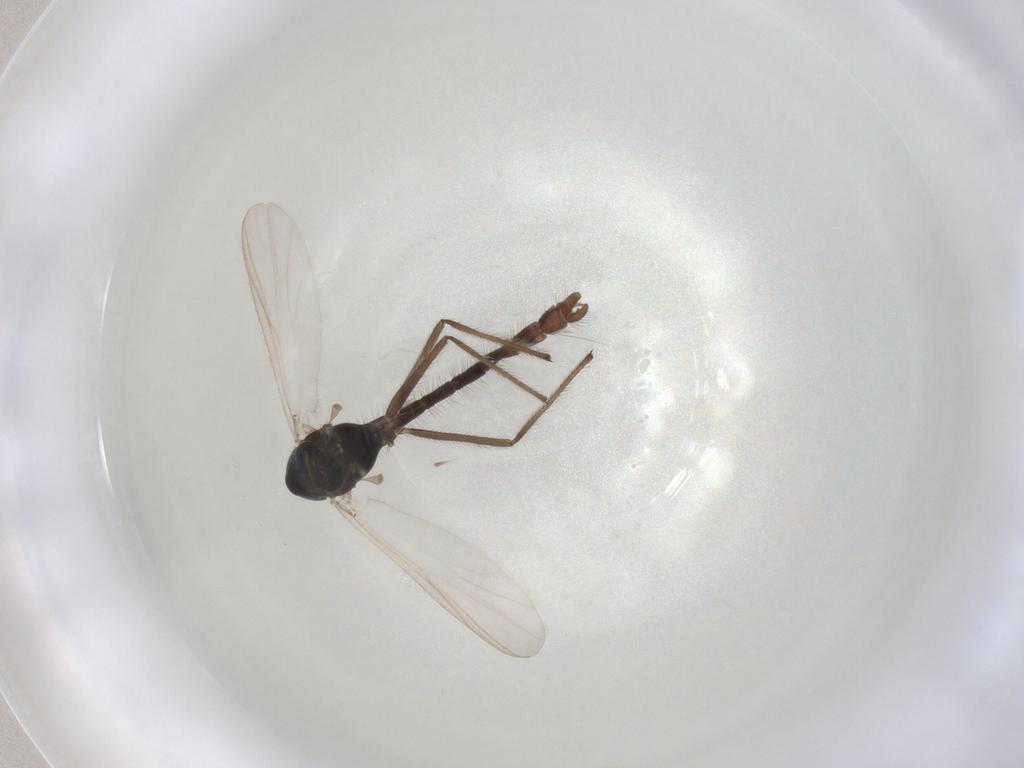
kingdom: Animalia
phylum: Arthropoda
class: Insecta
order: Diptera
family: Chironomidae
